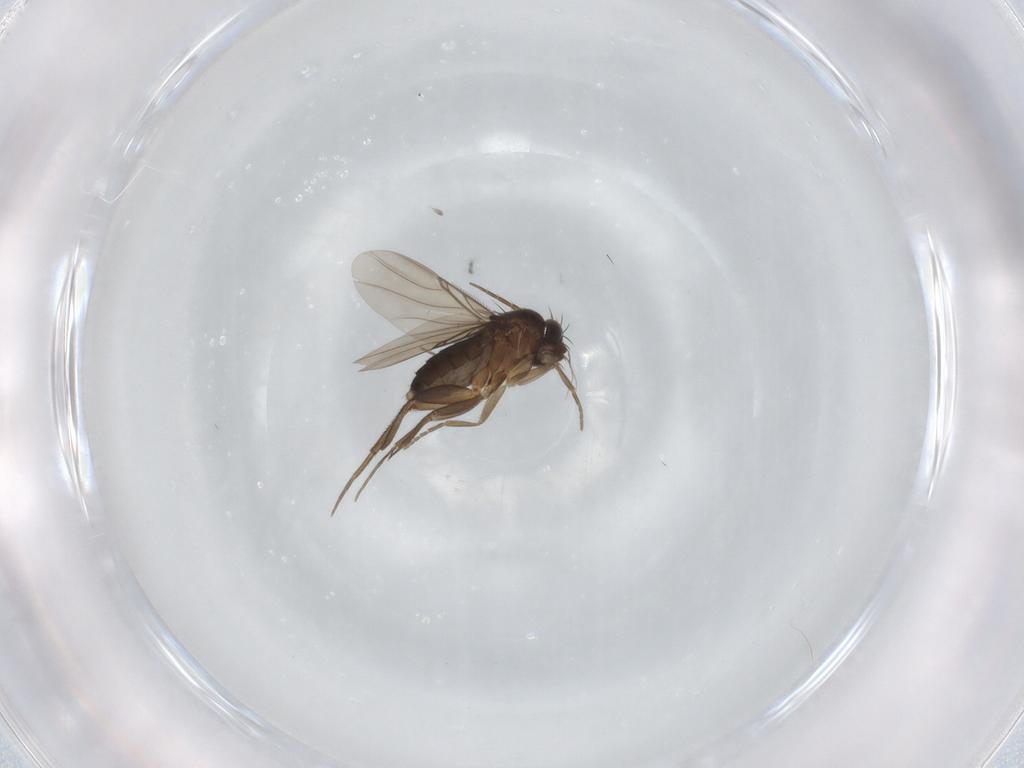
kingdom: Animalia
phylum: Arthropoda
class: Insecta
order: Diptera
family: Phoridae
